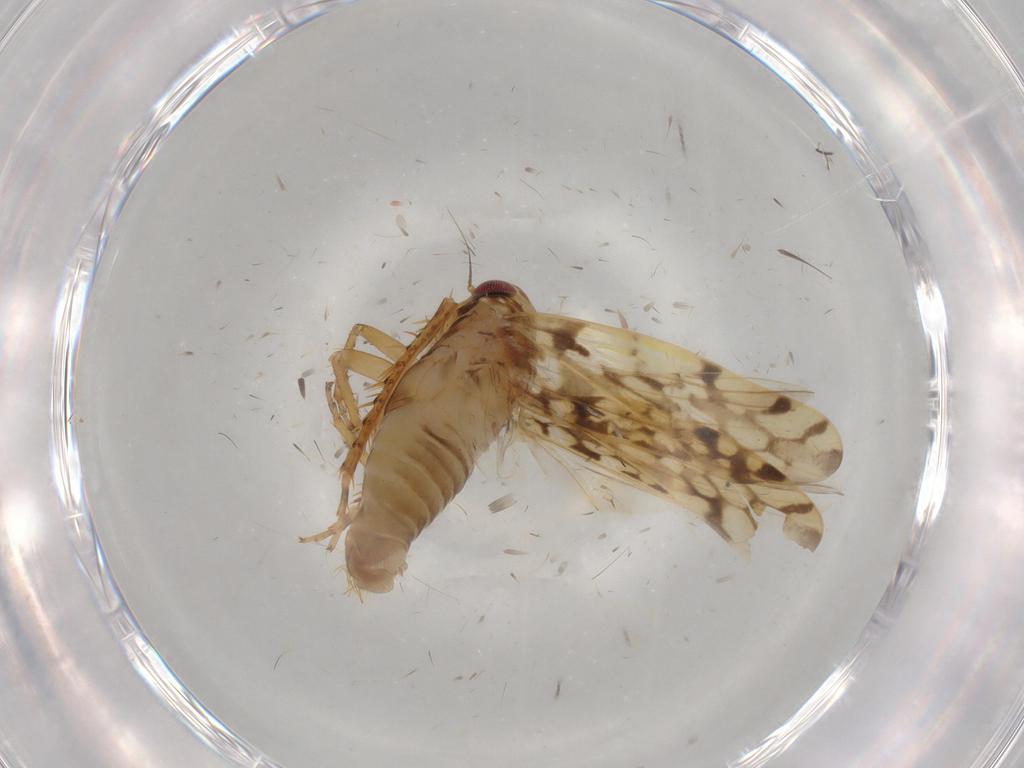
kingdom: Animalia
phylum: Arthropoda
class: Insecta
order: Hemiptera
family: Cicadellidae
